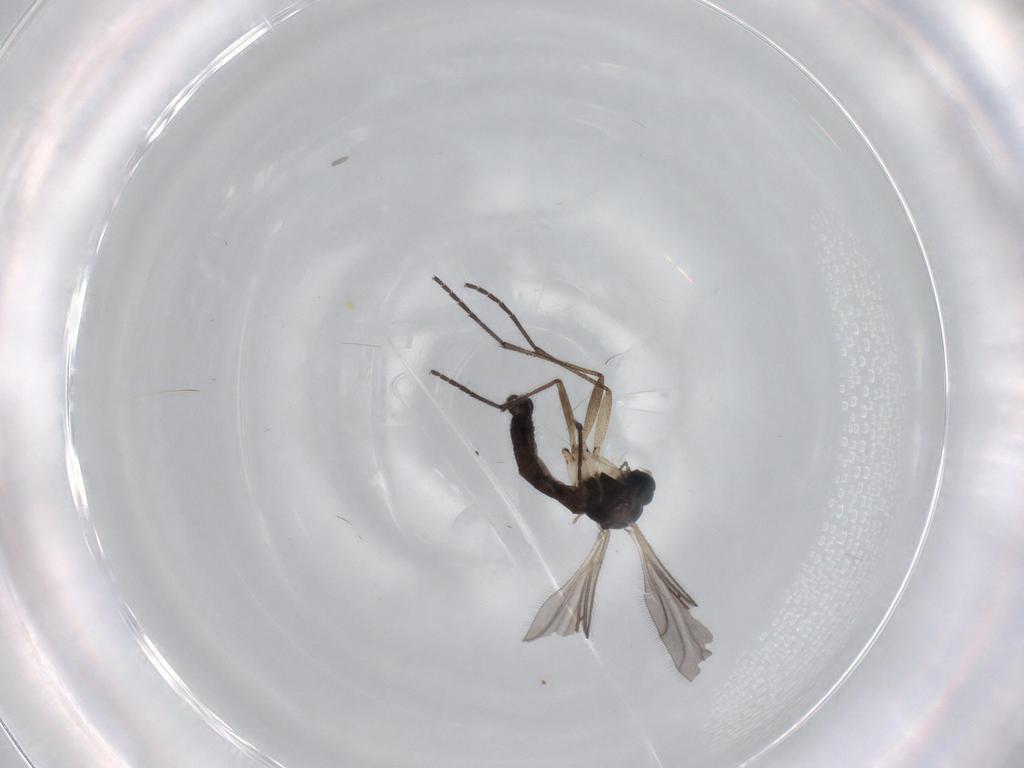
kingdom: Animalia
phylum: Arthropoda
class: Insecta
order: Diptera
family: Sciaridae
